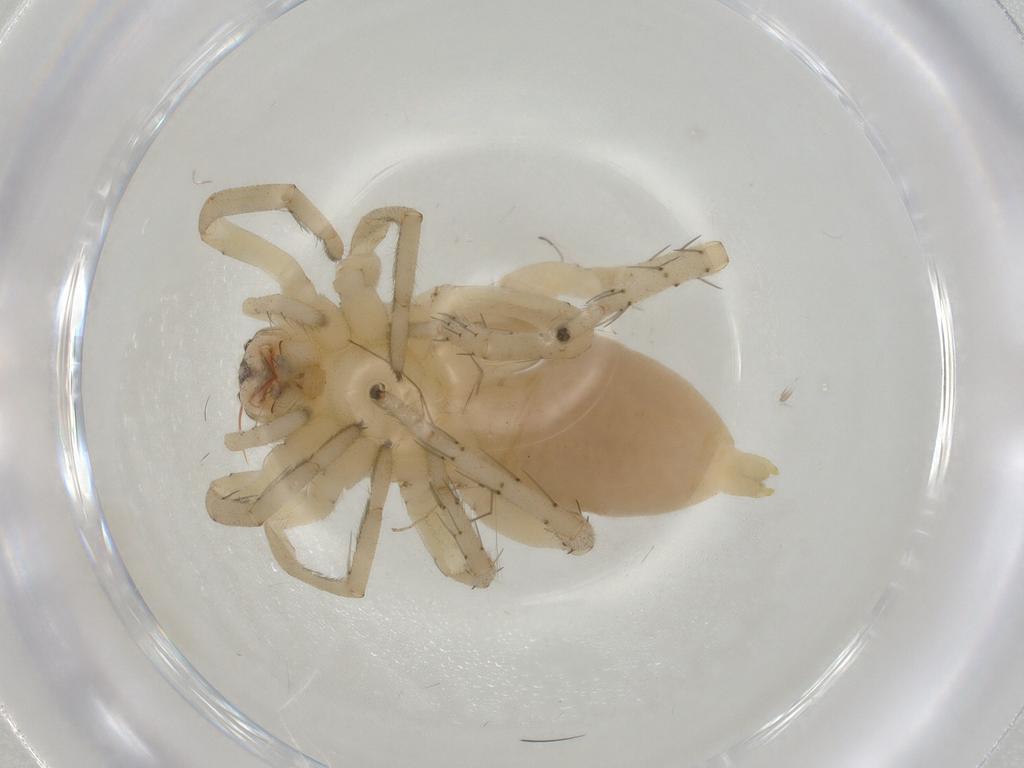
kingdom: Animalia
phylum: Arthropoda
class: Arachnida
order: Araneae
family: Clubionidae
